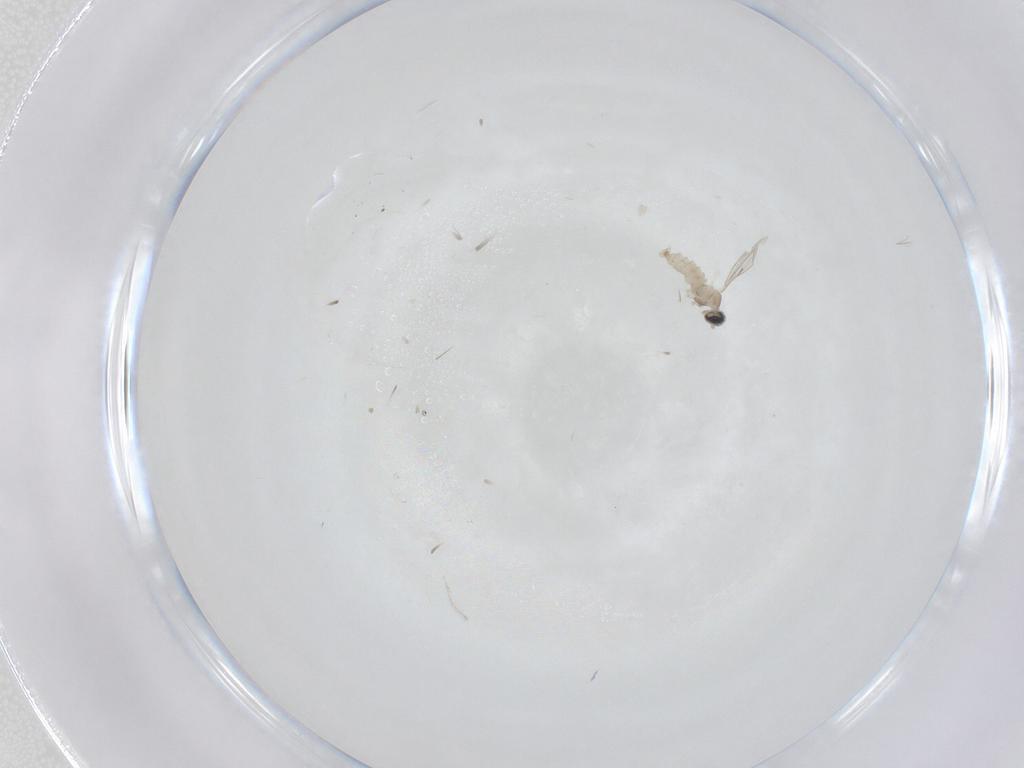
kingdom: Animalia
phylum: Arthropoda
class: Insecta
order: Diptera
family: Cecidomyiidae
